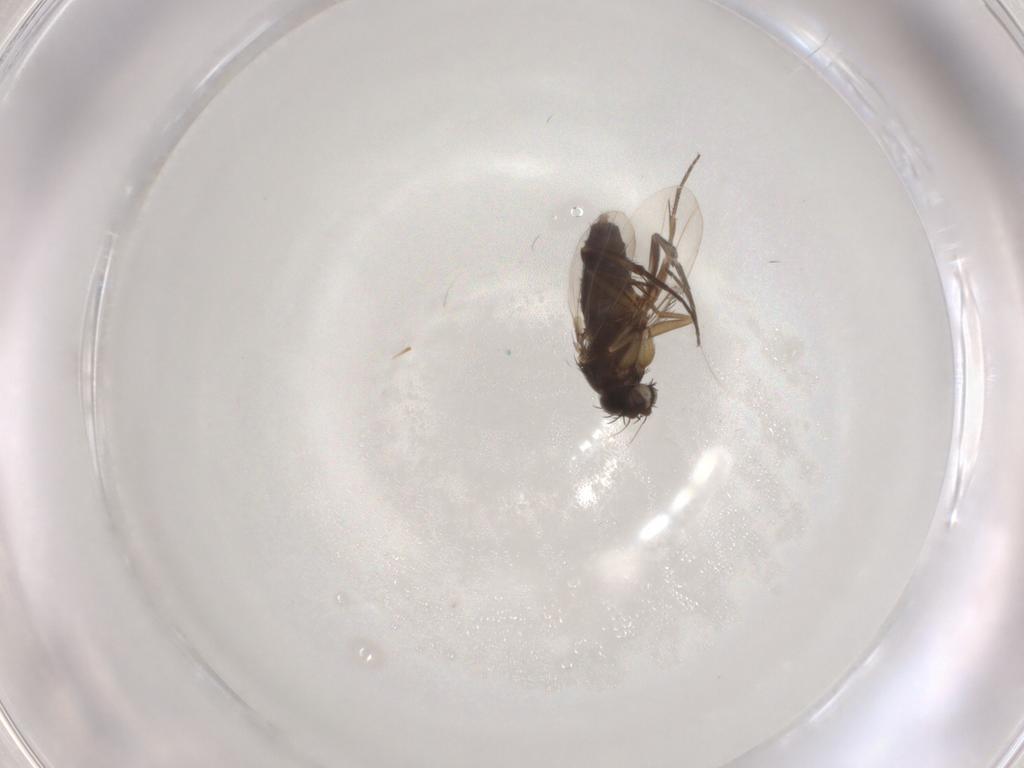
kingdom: Animalia
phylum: Arthropoda
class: Insecta
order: Diptera
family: Phoridae
